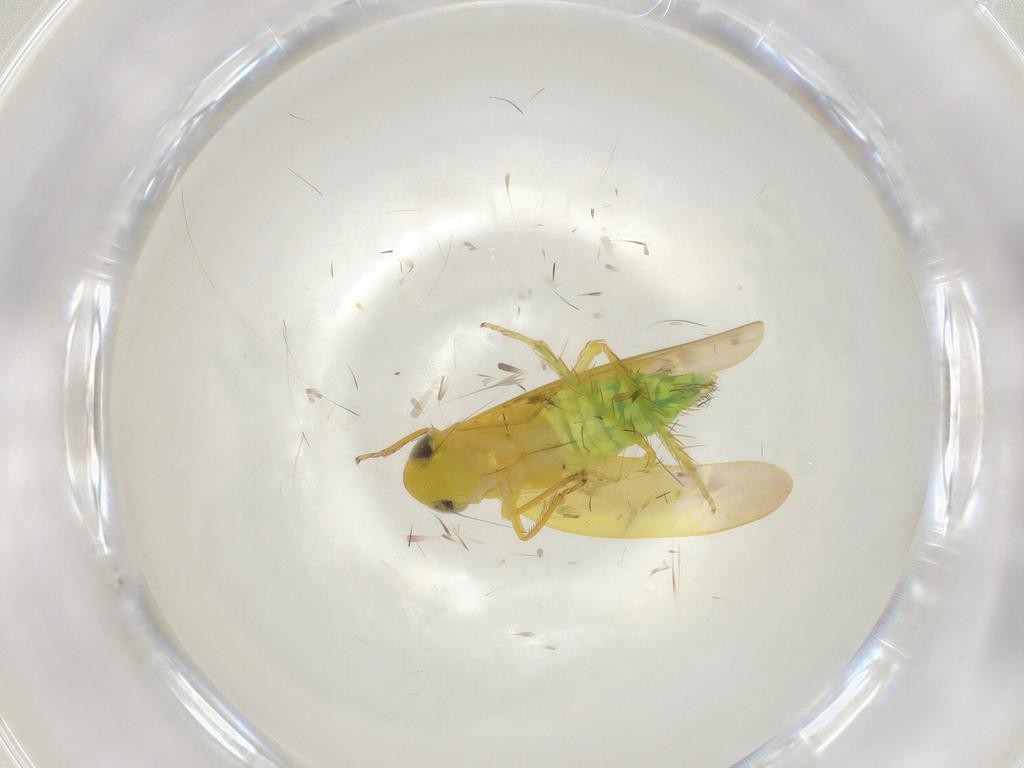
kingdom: Animalia
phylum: Arthropoda
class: Insecta
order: Hemiptera
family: Cicadellidae
